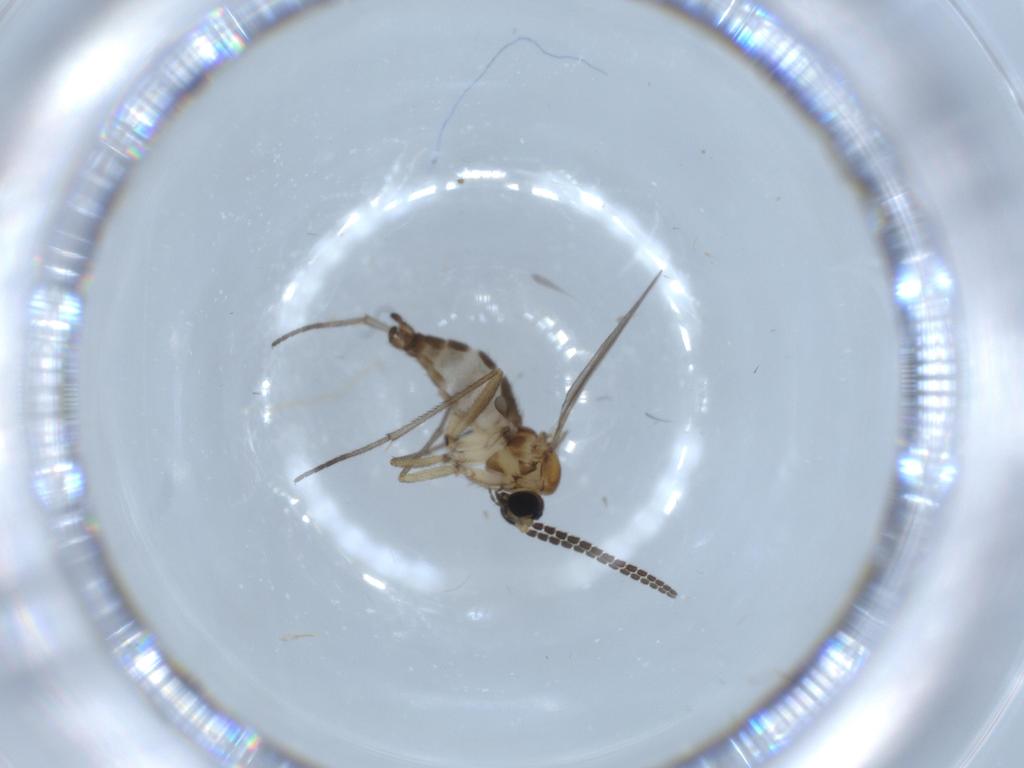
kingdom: Animalia
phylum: Arthropoda
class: Insecta
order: Diptera
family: Sciaridae
